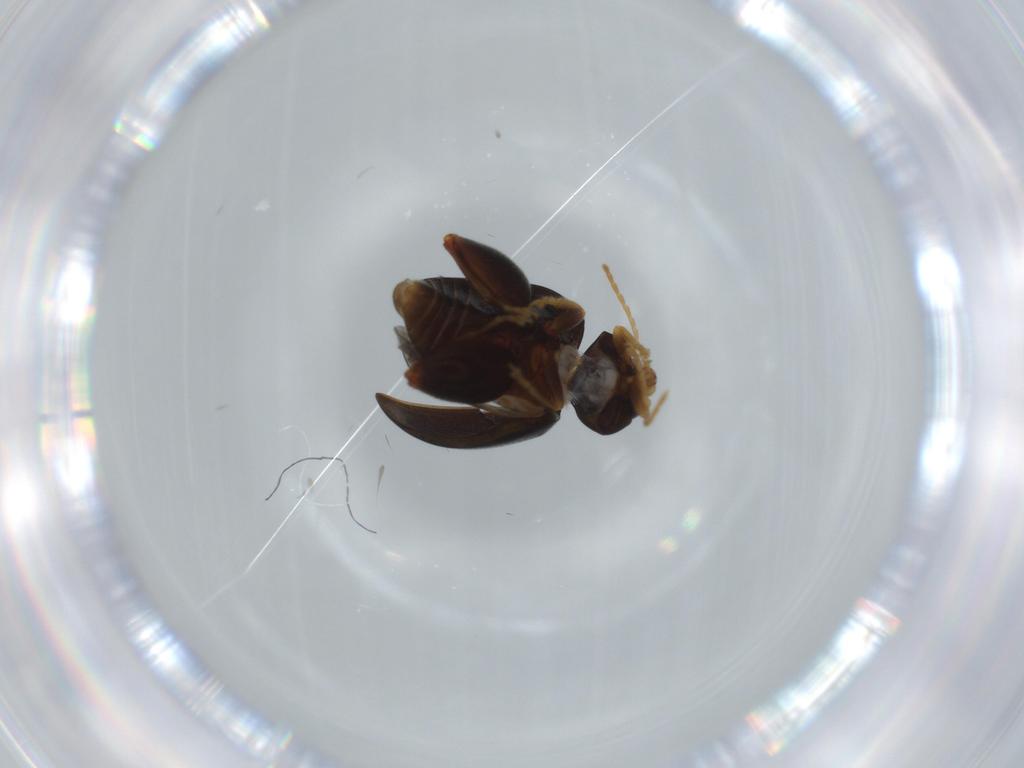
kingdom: Animalia
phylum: Arthropoda
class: Insecta
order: Coleoptera
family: Chrysomelidae
